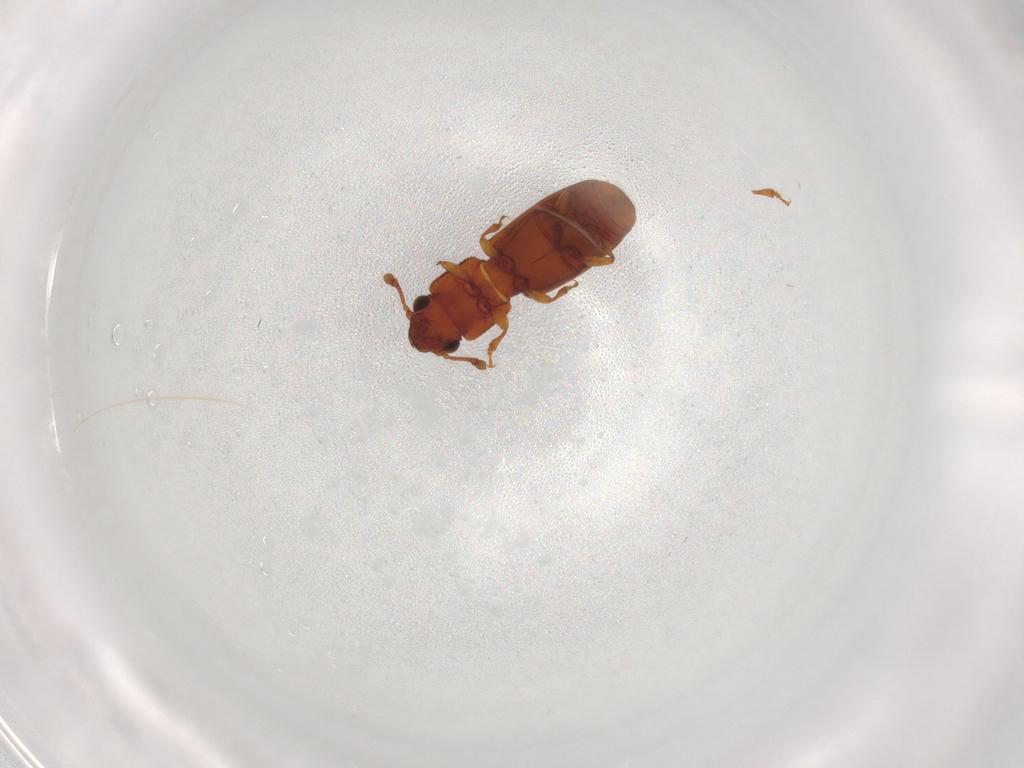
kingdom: Animalia
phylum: Arthropoda
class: Insecta
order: Coleoptera
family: Monotomidae
